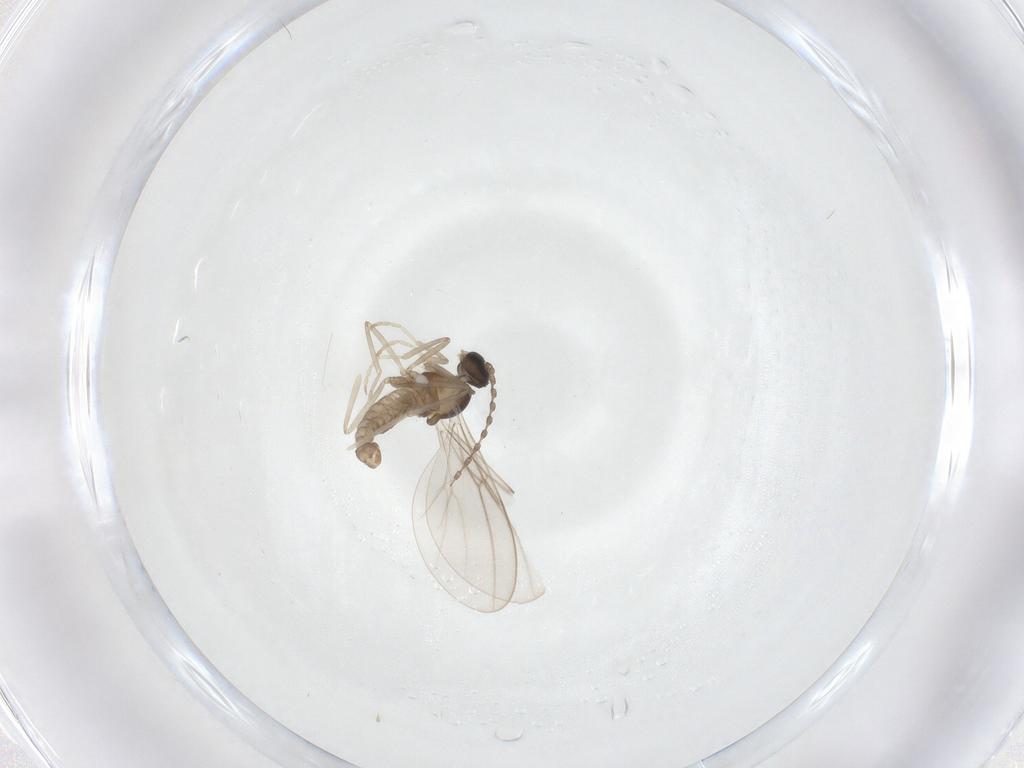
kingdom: Animalia
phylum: Arthropoda
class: Insecta
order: Diptera
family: Cecidomyiidae
